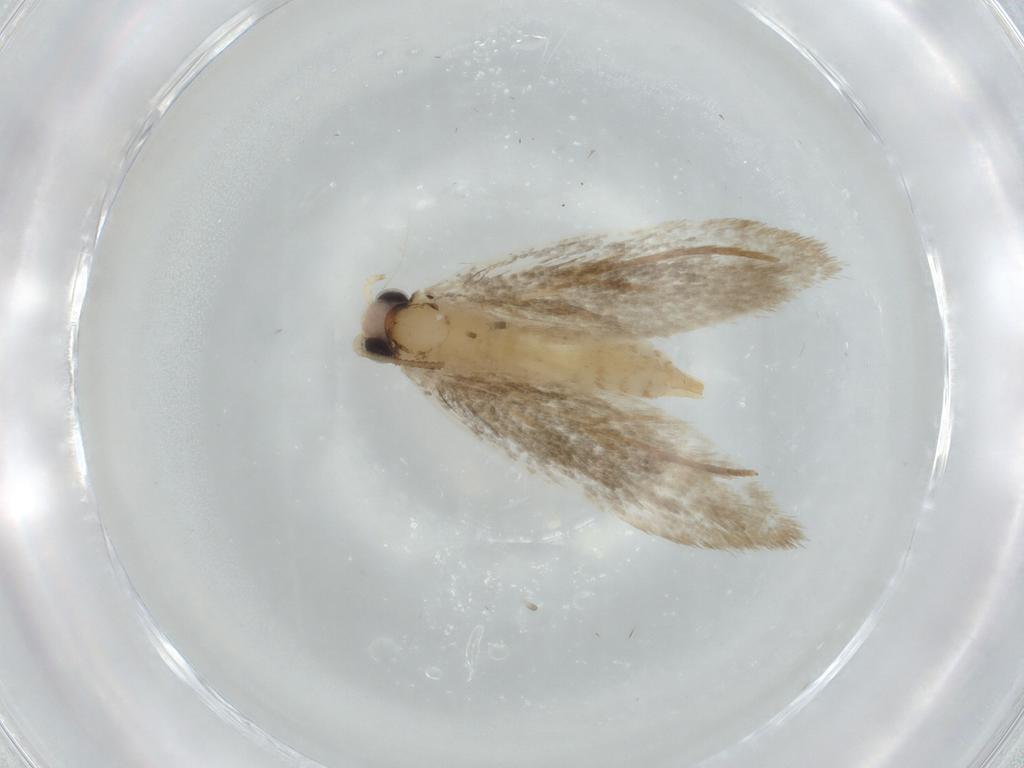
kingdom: Animalia
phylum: Arthropoda
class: Insecta
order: Lepidoptera
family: Tineidae
